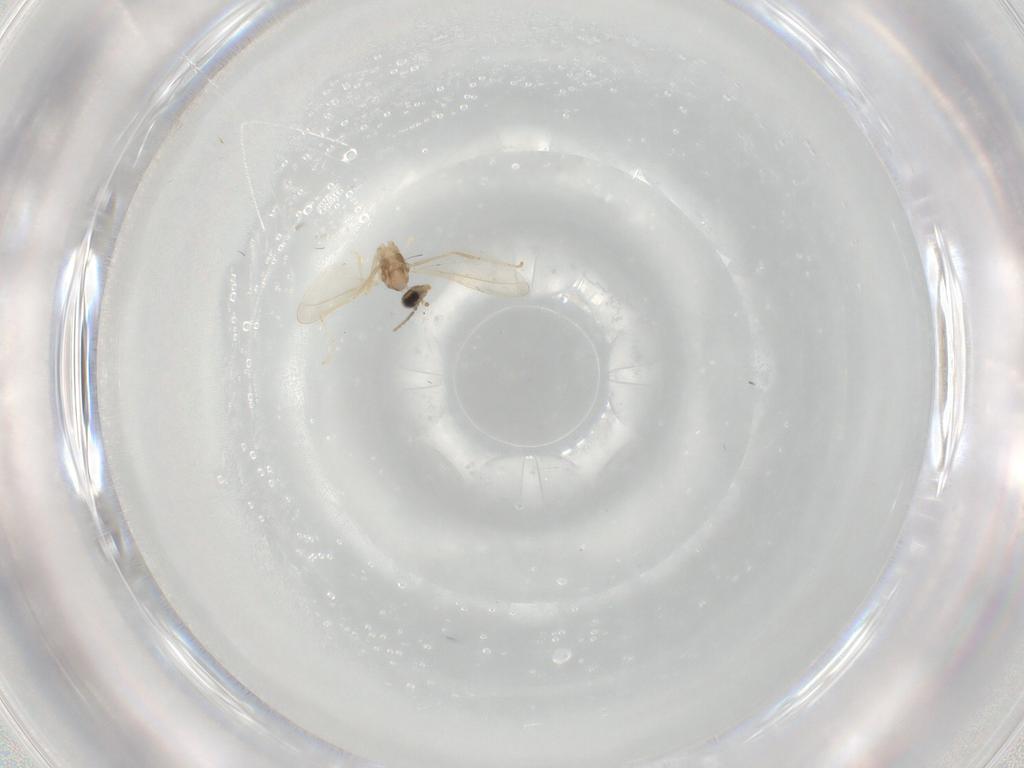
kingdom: Animalia
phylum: Arthropoda
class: Insecta
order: Diptera
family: Cecidomyiidae
